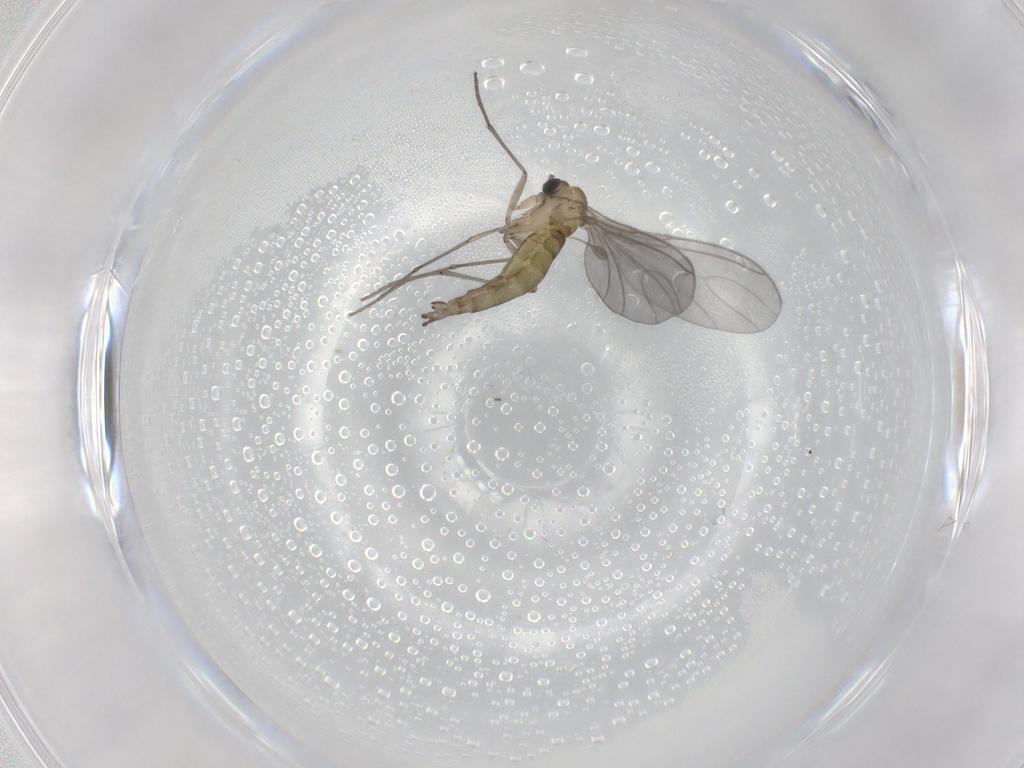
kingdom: Animalia
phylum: Arthropoda
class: Insecta
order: Diptera
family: Sciaridae
